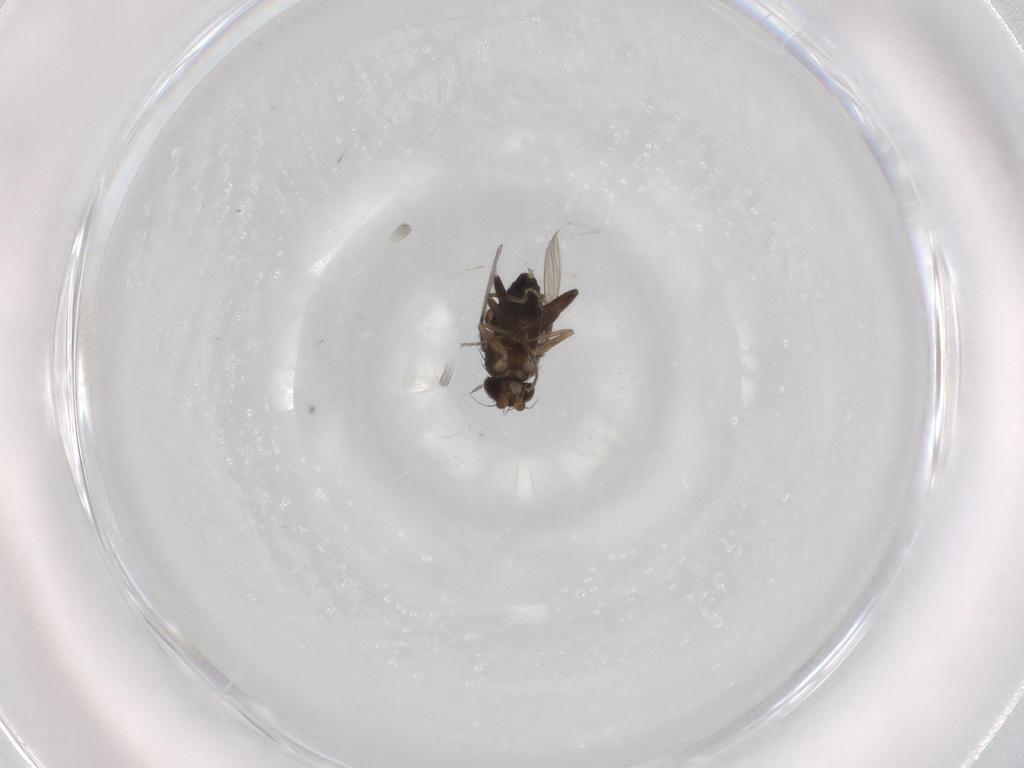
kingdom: Animalia
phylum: Arthropoda
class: Insecta
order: Diptera
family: Phoridae
